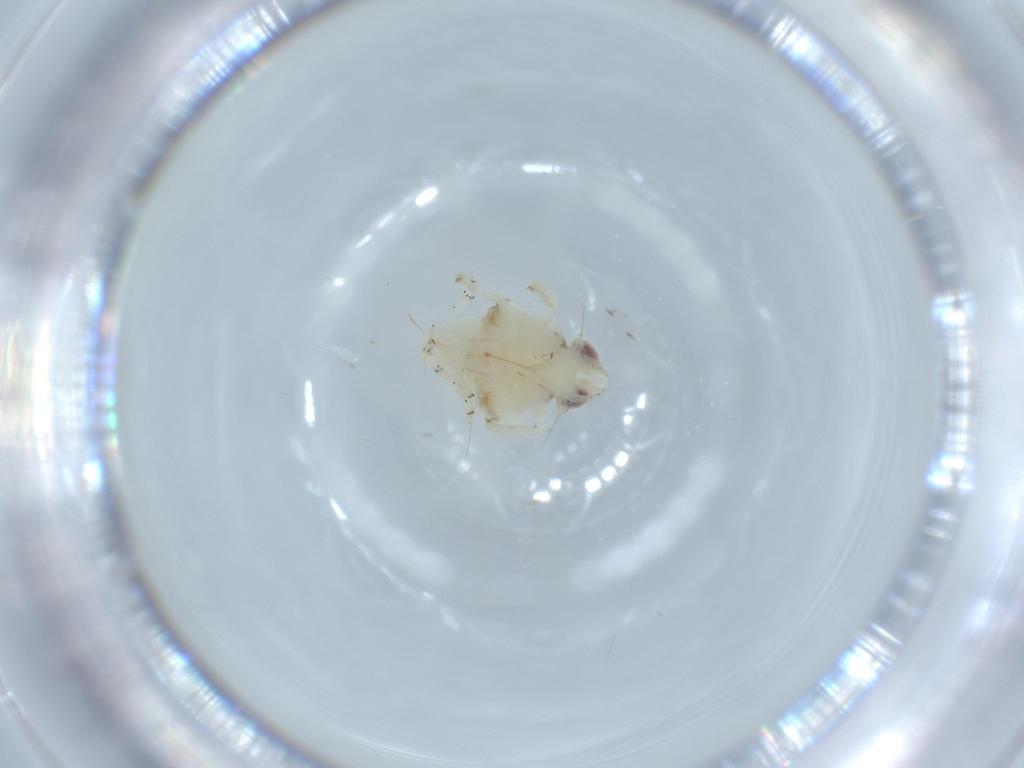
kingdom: Animalia
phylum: Arthropoda
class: Insecta
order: Hemiptera
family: Nogodinidae
